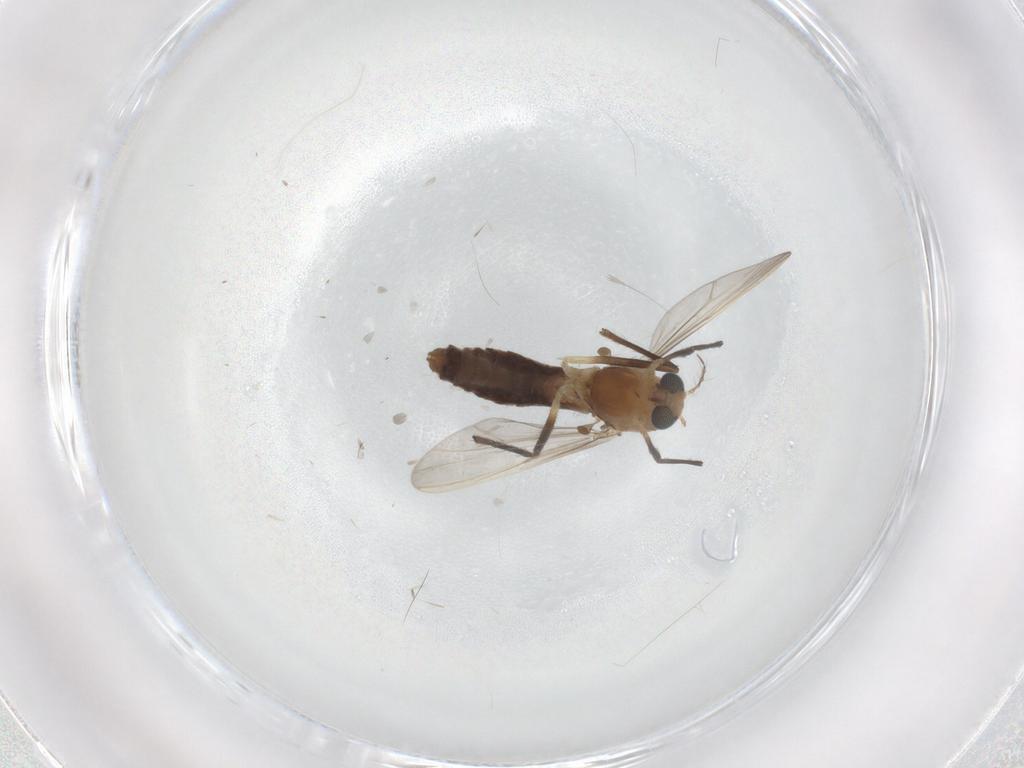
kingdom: Animalia
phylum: Arthropoda
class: Insecta
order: Diptera
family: Chironomidae
